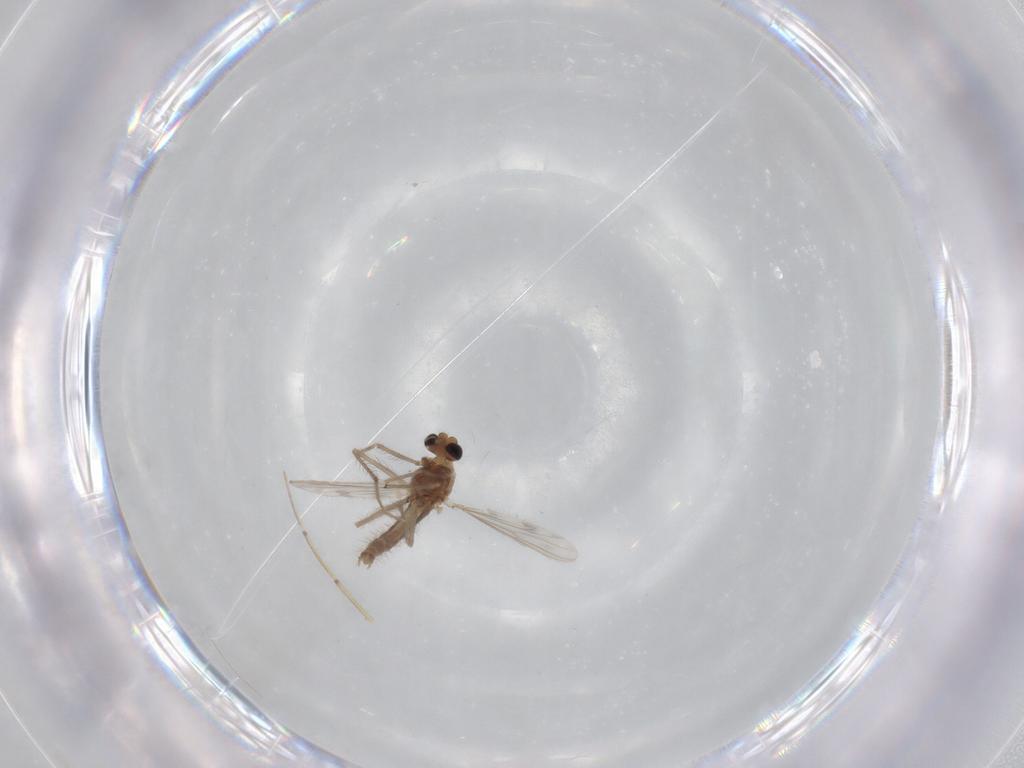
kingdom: Animalia
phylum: Arthropoda
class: Insecta
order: Diptera
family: Chironomidae
